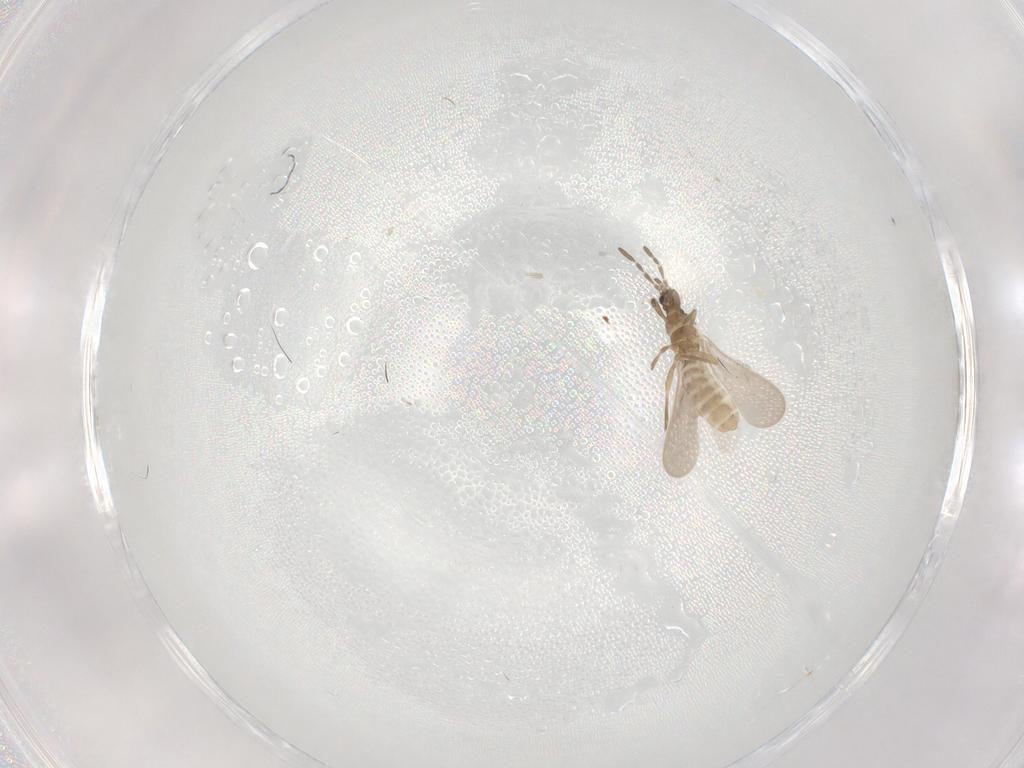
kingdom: Animalia
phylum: Arthropoda
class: Insecta
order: Hemiptera
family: Enicocephalidae
